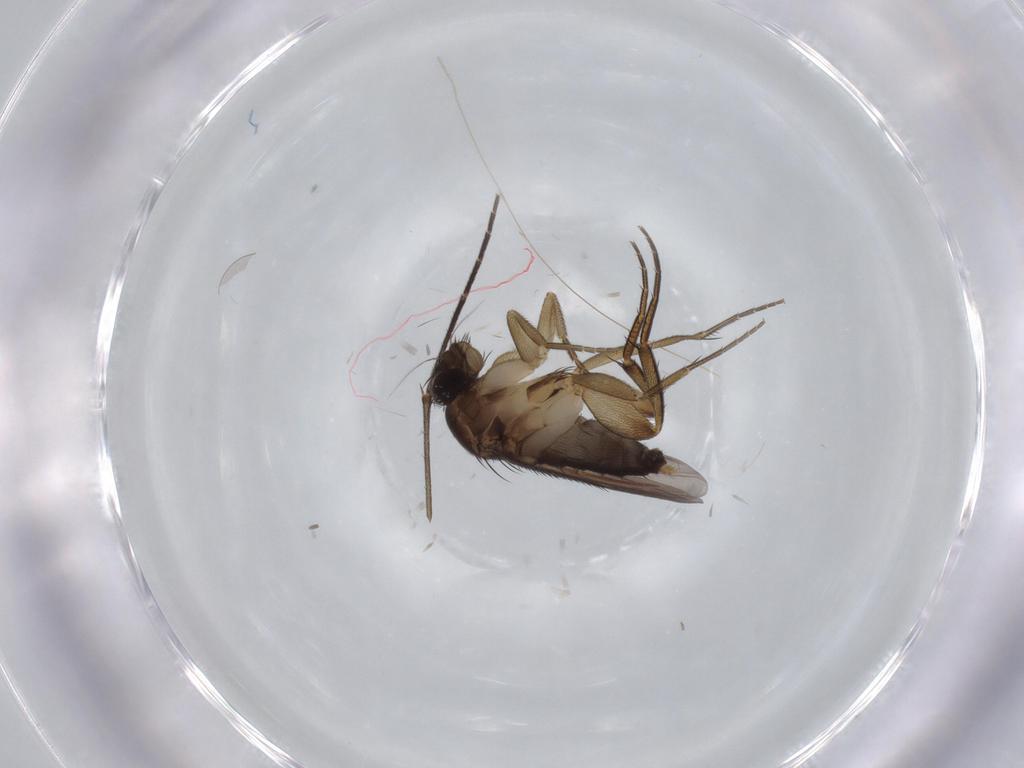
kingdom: Animalia
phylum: Arthropoda
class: Insecta
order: Diptera
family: Phoridae
